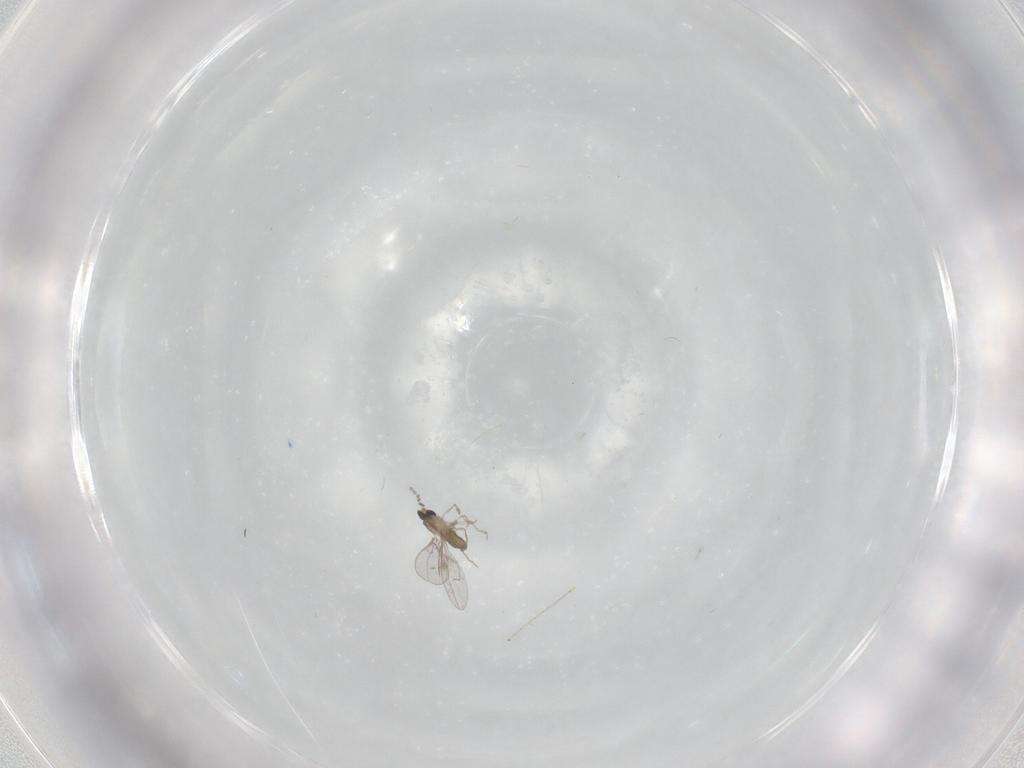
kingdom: Animalia
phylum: Arthropoda
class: Insecta
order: Diptera
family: Cecidomyiidae
